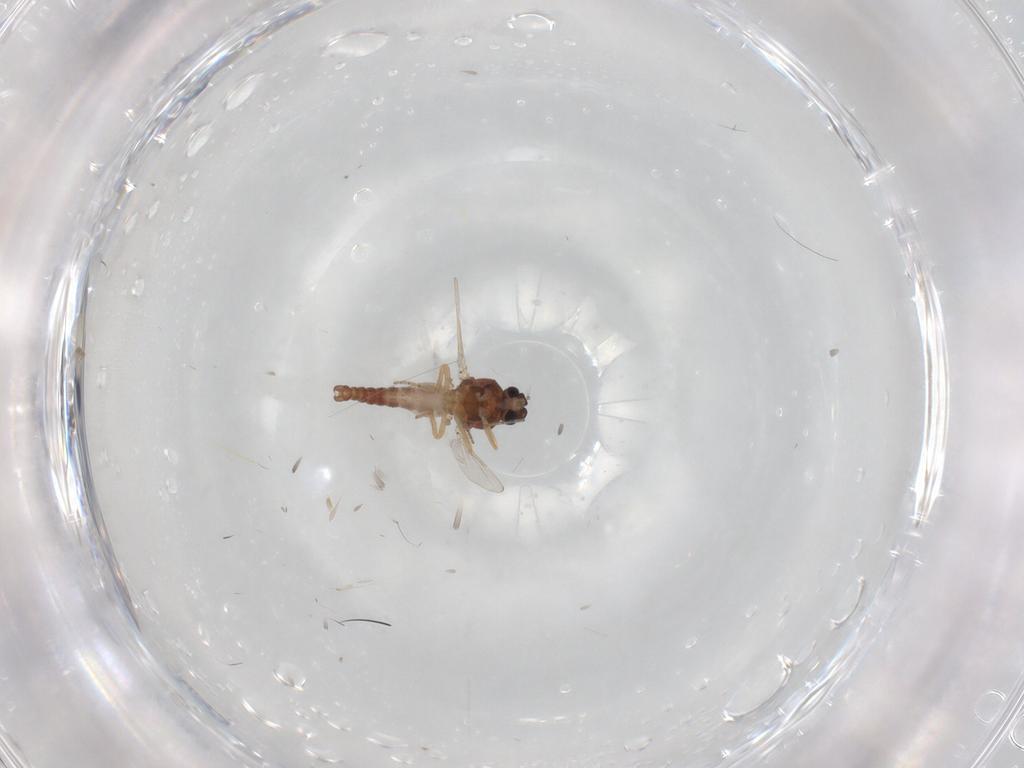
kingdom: Animalia
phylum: Arthropoda
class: Insecta
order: Diptera
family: Ceratopogonidae
